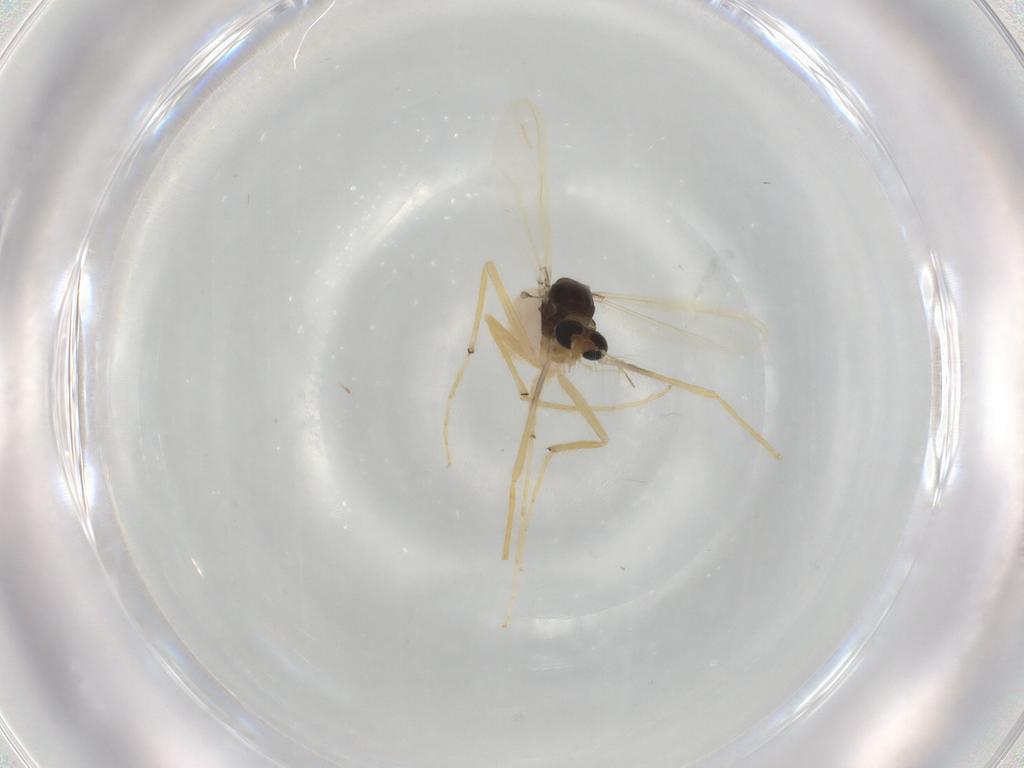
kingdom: Animalia
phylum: Arthropoda
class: Insecta
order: Diptera
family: Chironomidae
